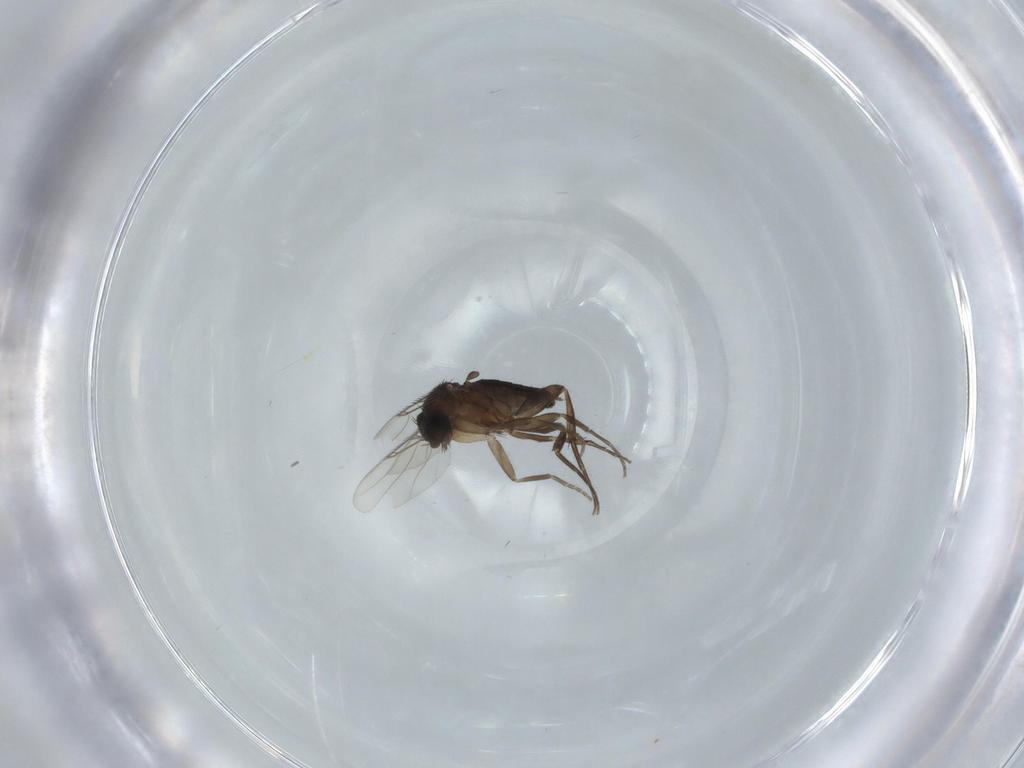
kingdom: Animalia
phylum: Arthropoda
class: Insecta
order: Diptera
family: Phoridae
